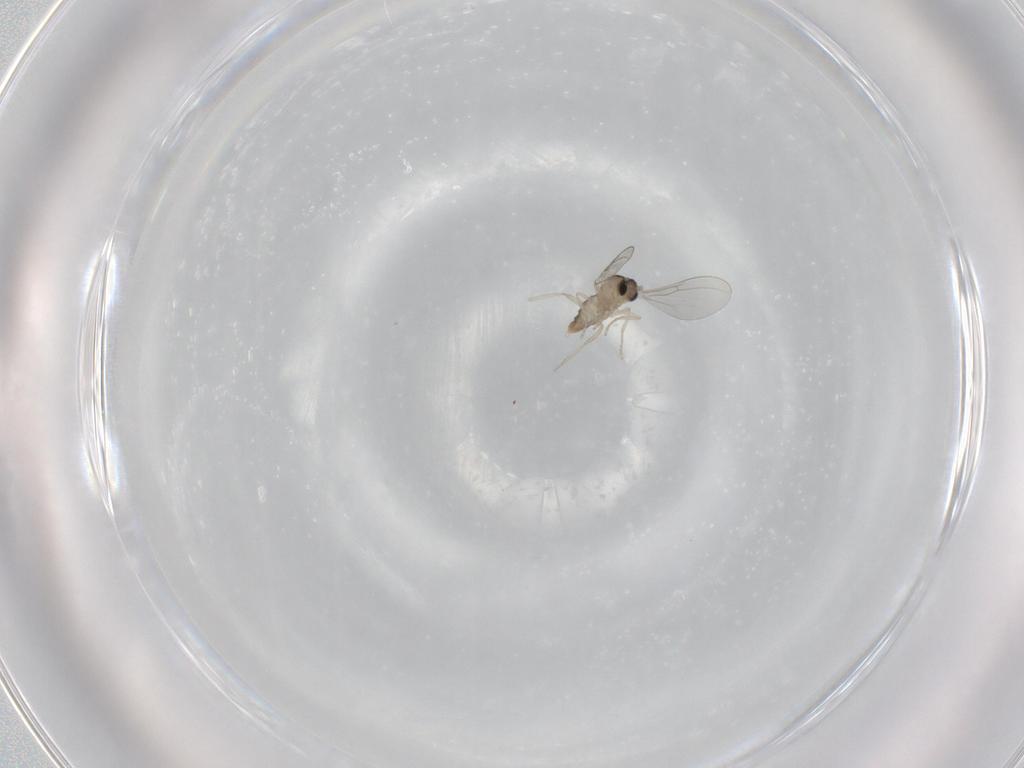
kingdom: Animalia
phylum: Arthropoda
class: Insecta
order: Diptera
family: Cecidomyiidae
